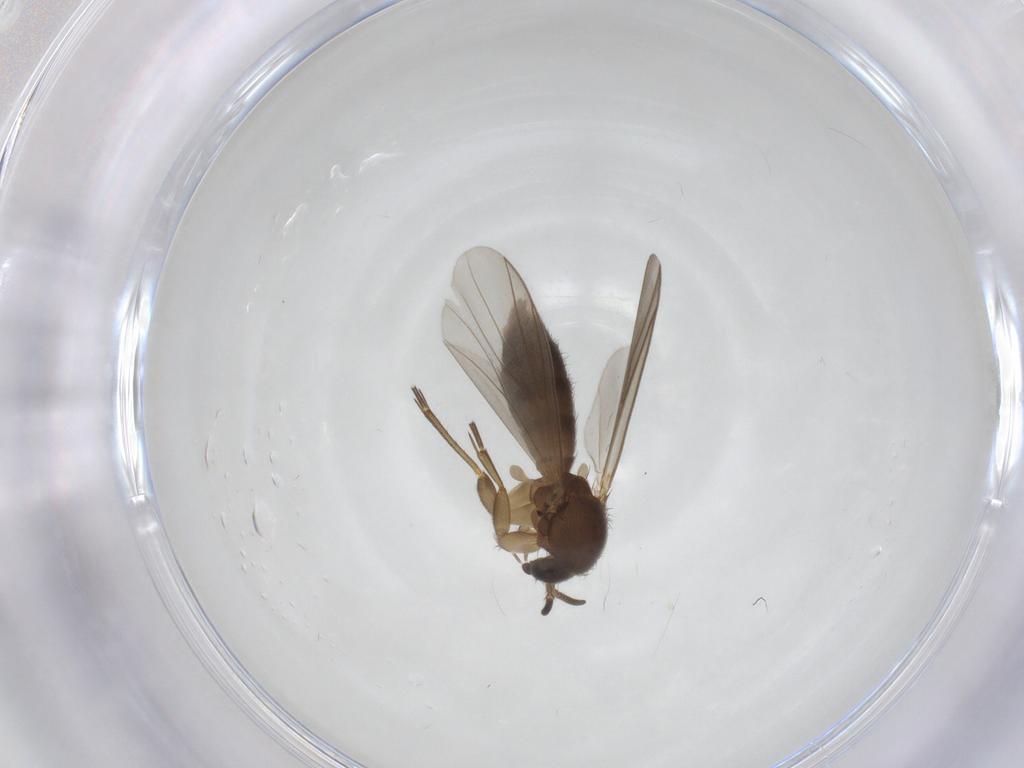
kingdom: Animalia
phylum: Arthropoda
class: Insecta
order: Diptera
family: Mycetophilidae
